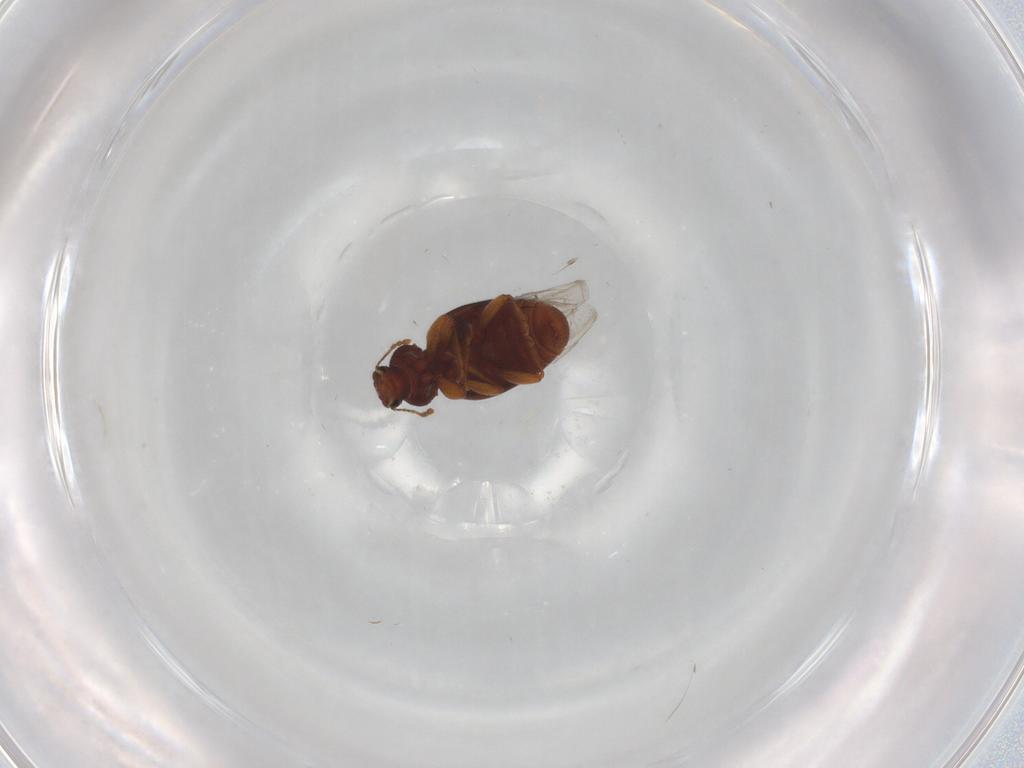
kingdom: Animalia
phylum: Arthropoda
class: Insecta
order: Coleoptera
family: Latridiidae
